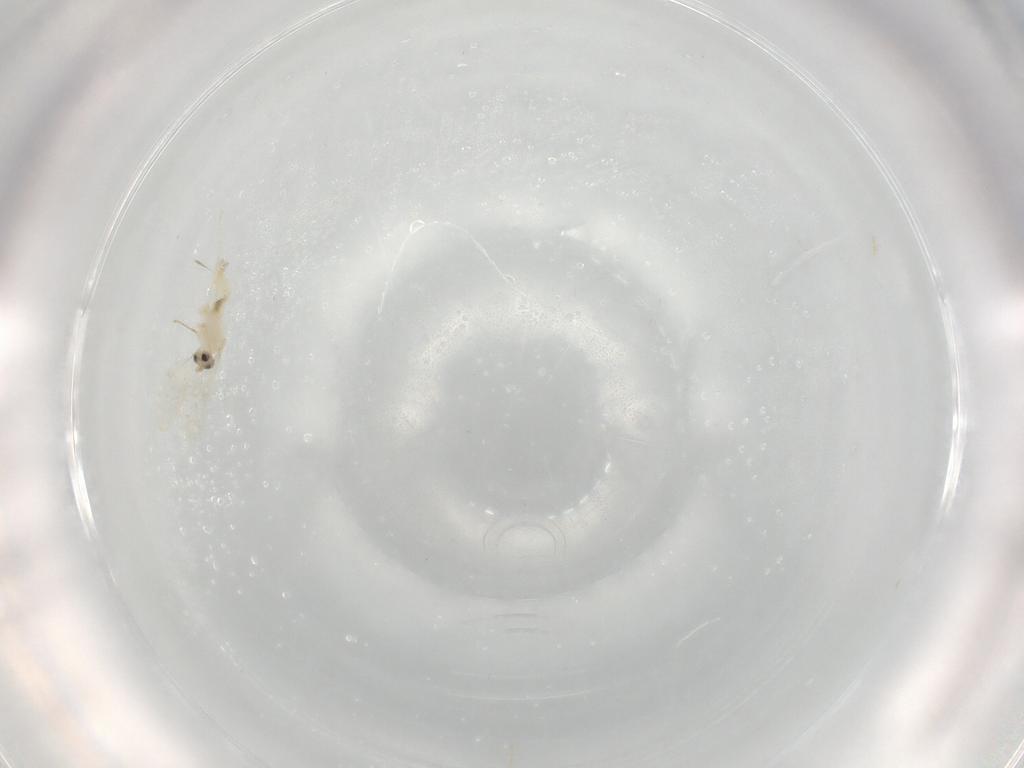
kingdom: Animalia
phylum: Arthropoda
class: Insecta
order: Diptera
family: Cecidomyiidae
